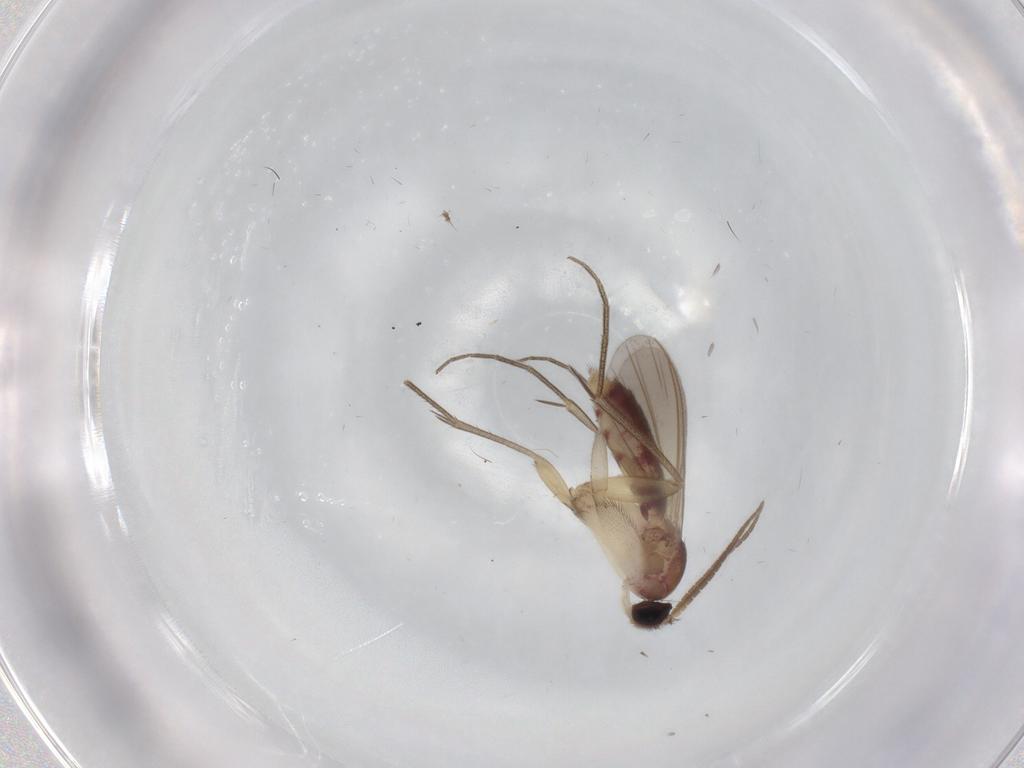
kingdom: Animalia
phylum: Arthropoda
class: Insecta
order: Diptera
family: Mycetophilidae
